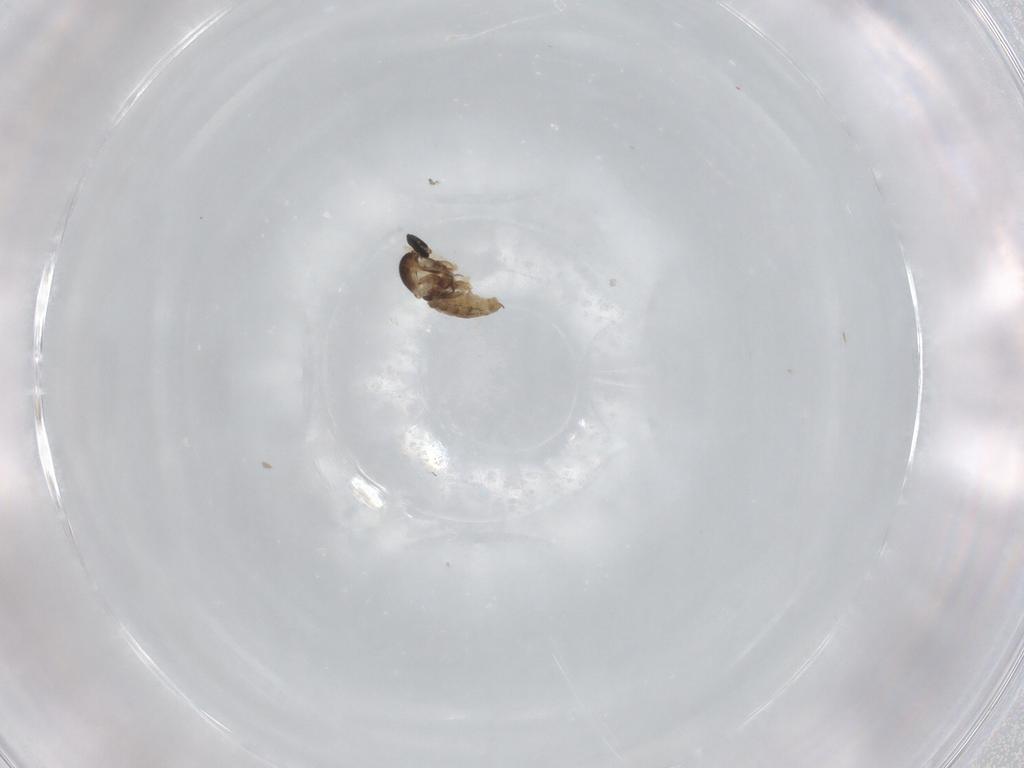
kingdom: Animalia
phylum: Arthropoda
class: Insecta
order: Diptera
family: Cecidomyiidae
